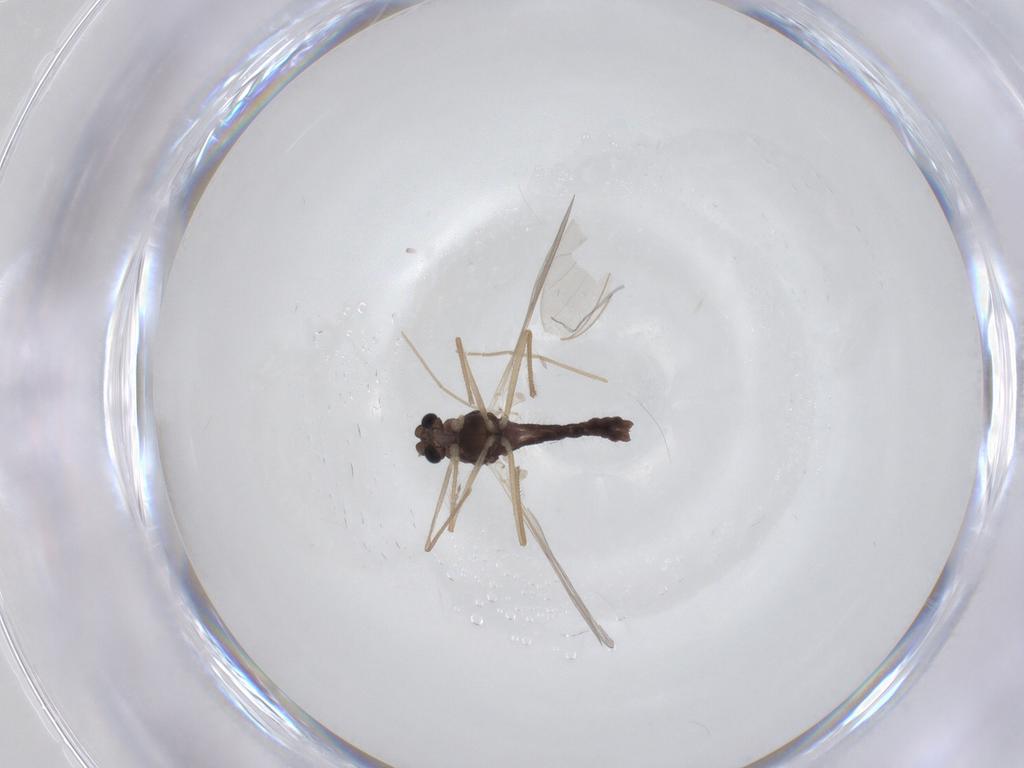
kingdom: Animalia
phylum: Arthropoda
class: Insecta
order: Diptera
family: Chironomidae
